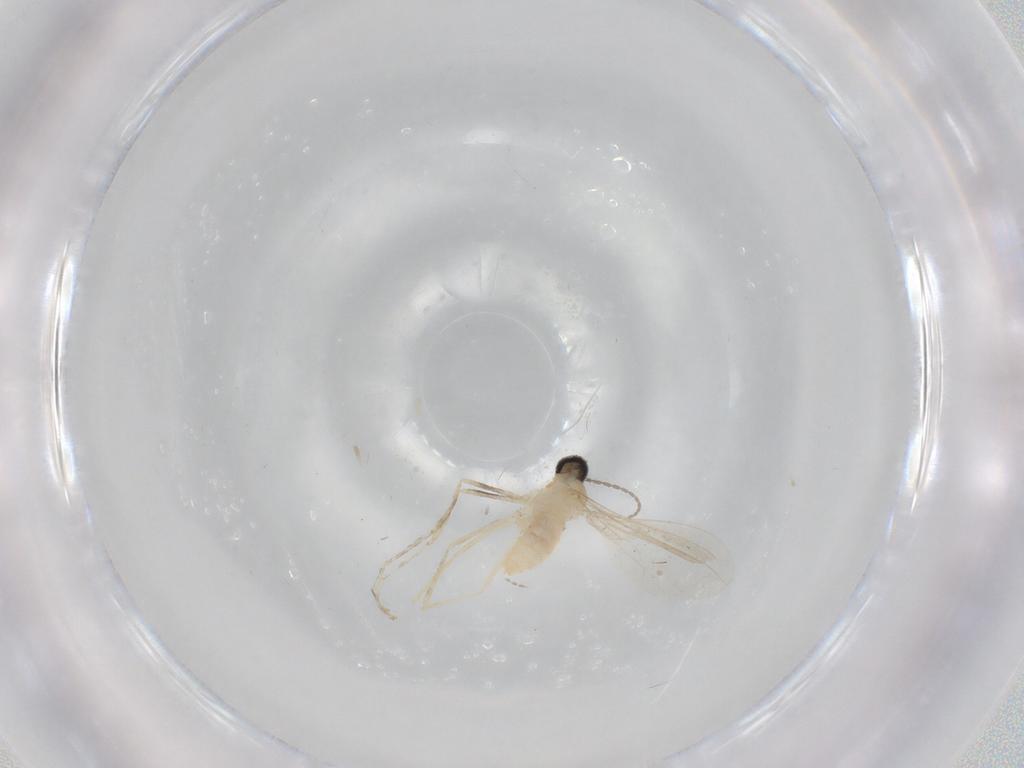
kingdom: Animalia
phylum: Arthropoda
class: Insecta
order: Diptera
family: Cecidomyiidae
